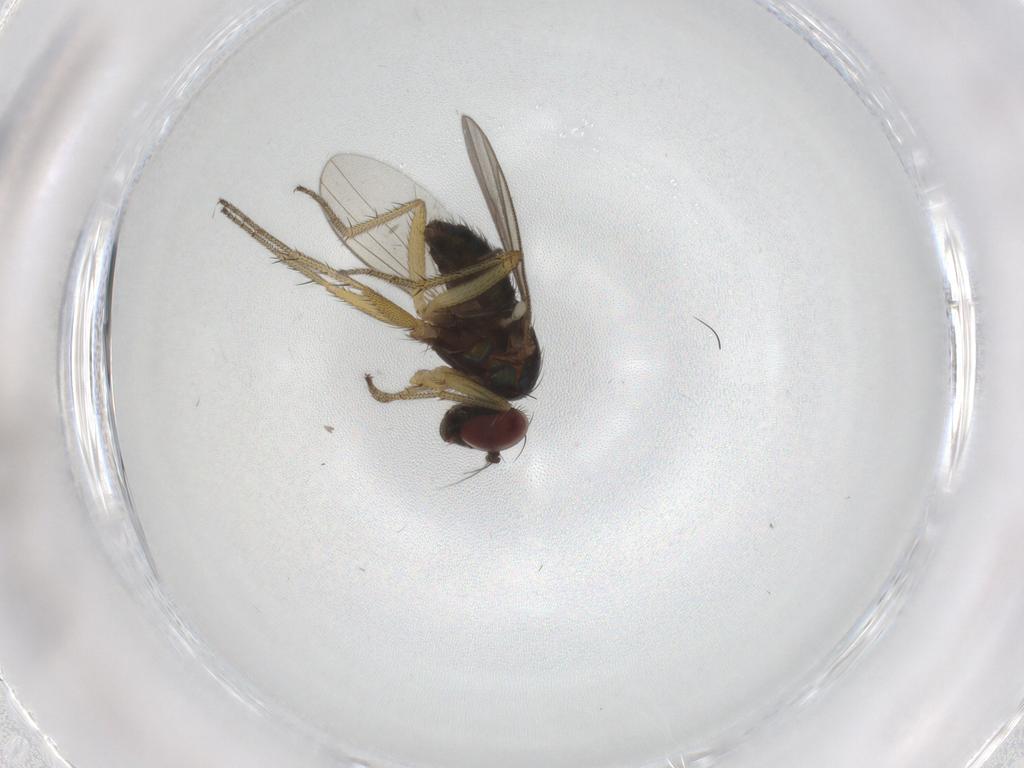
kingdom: Animalia
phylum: Arthropoda
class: Insecta
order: Diptera
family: Dolichopodidae
